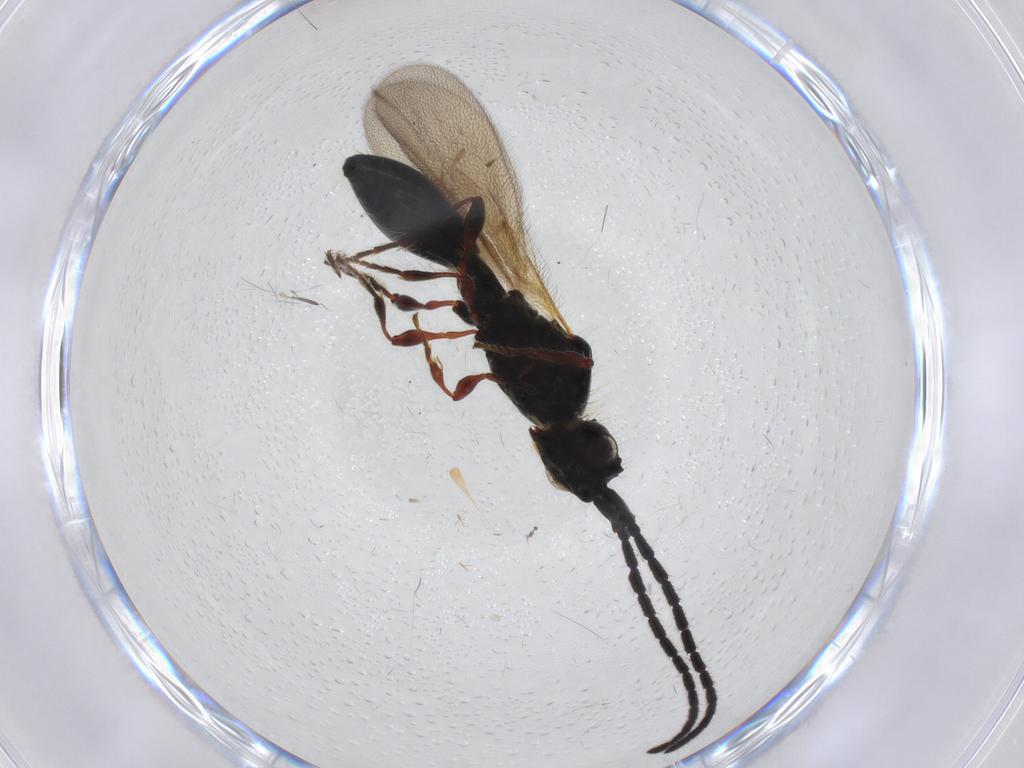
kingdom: Animalia
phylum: Arthropoda
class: Insecta
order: Hymenoptera
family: Diapriidae
